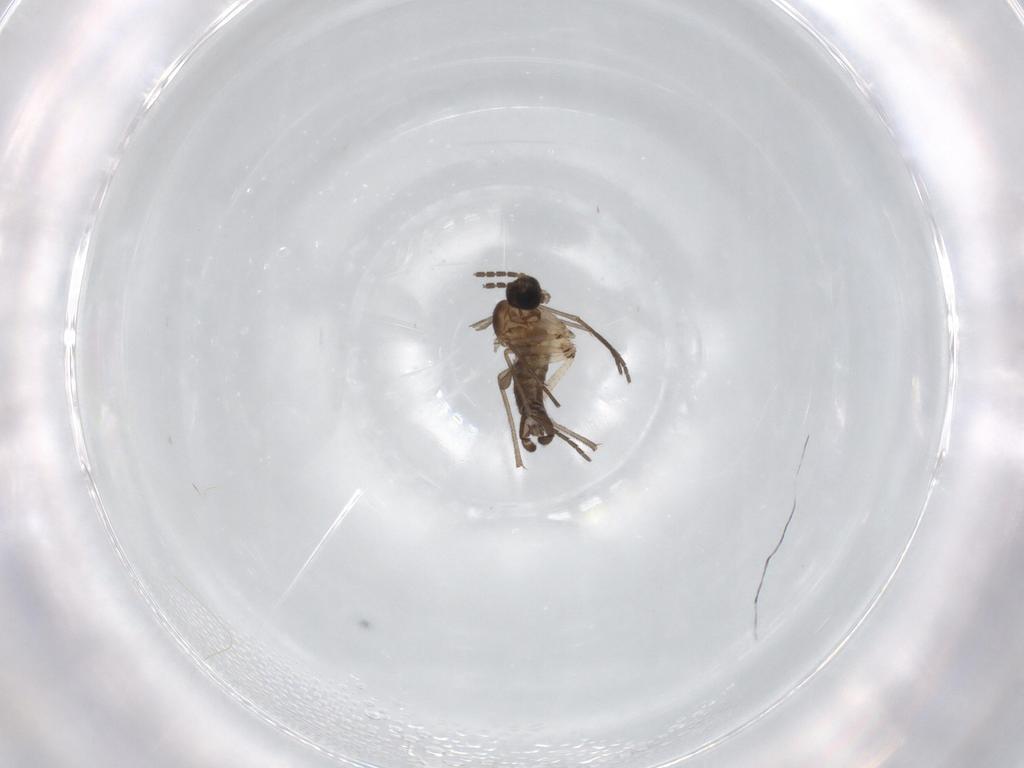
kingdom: Animalia
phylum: Arthropoda
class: Insecta
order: Diptera
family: Sciaridae
